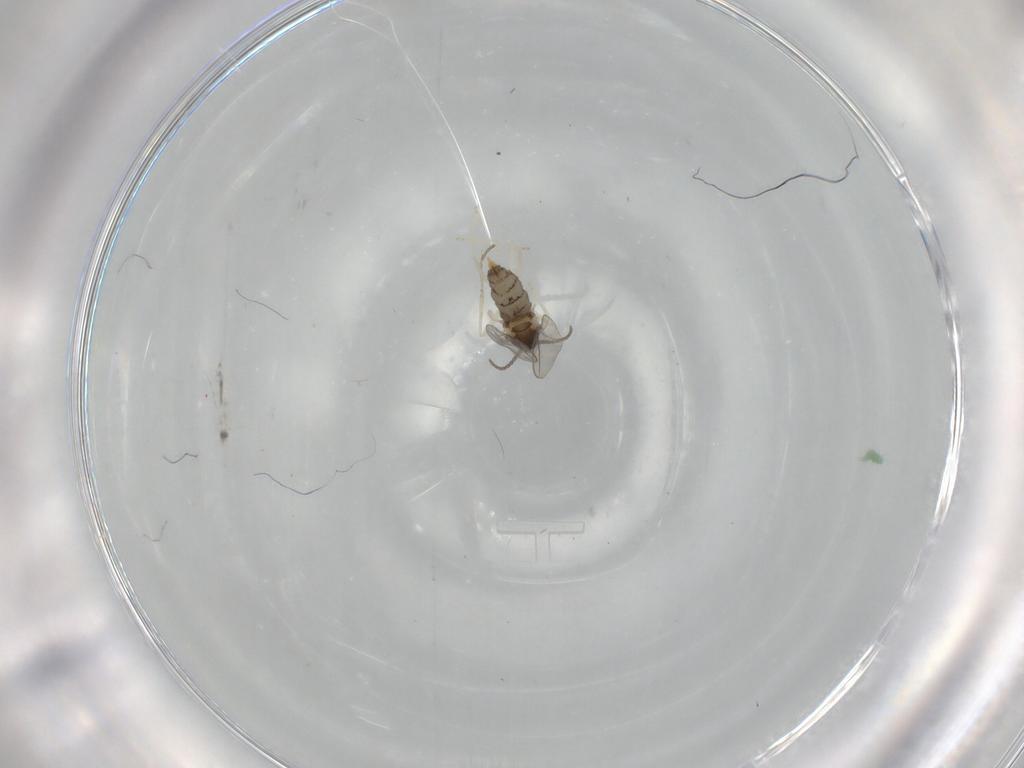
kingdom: Animalia
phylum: Arthropoda
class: Insecta
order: Diptera
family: Cecidomyiidae
